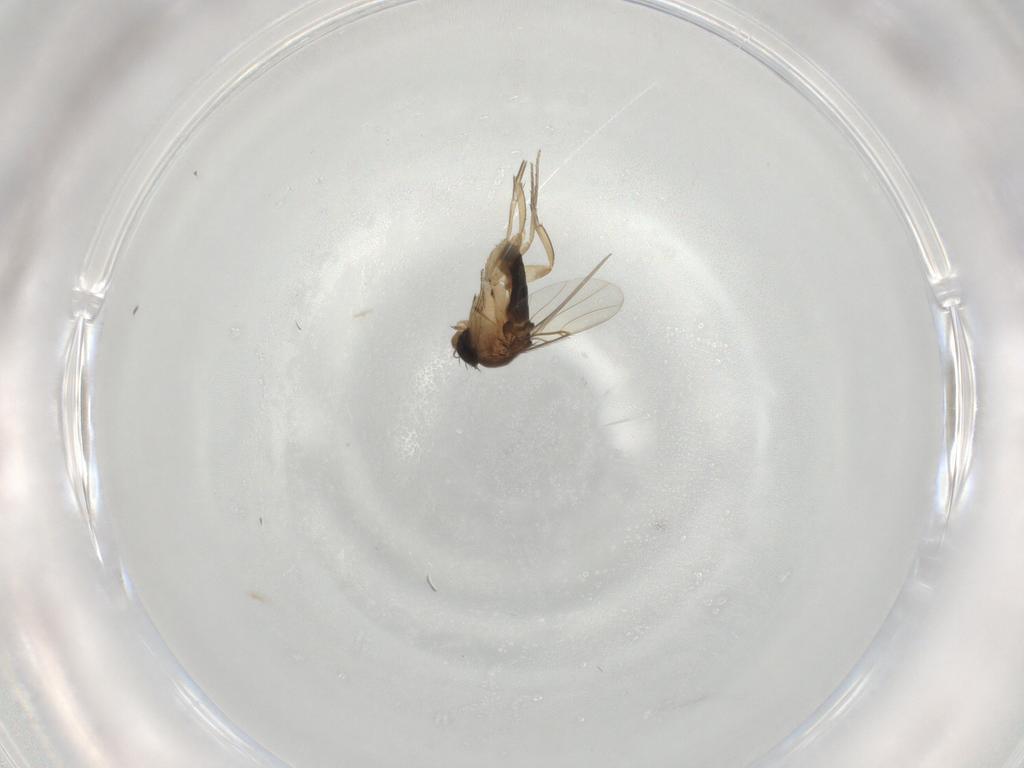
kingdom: Animalia
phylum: Arthropoda
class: Insecta
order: Diptera
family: Phoridae
